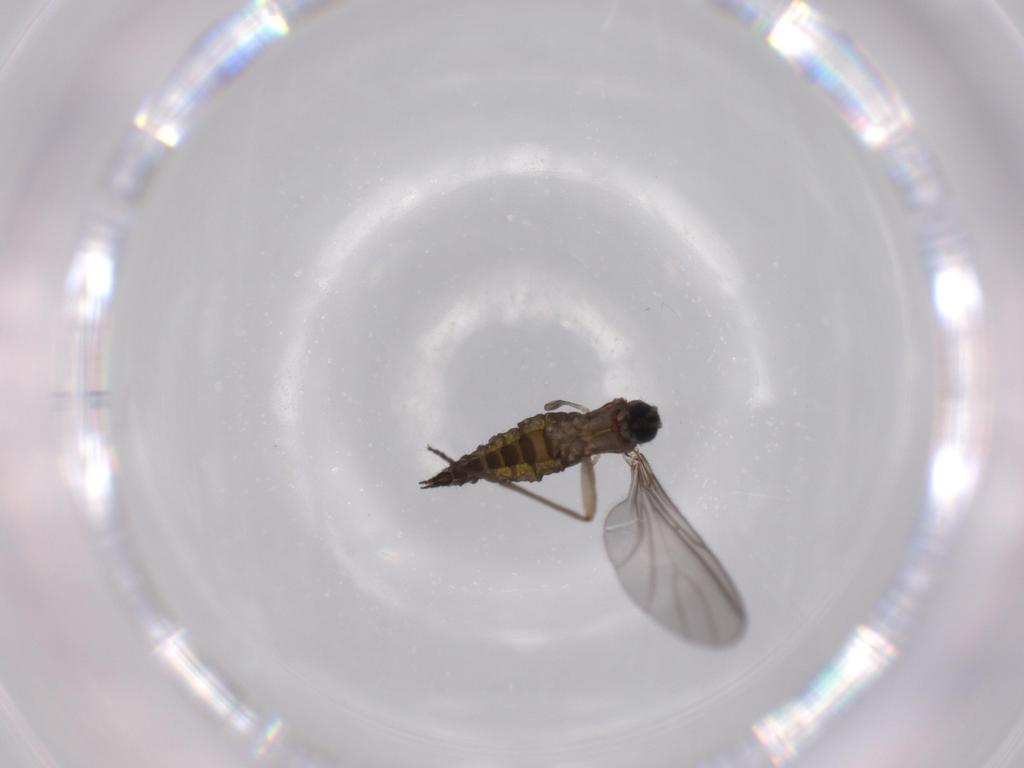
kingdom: Animalia
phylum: Arthropoda
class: Insecta
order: Diptera
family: Sciaridae
